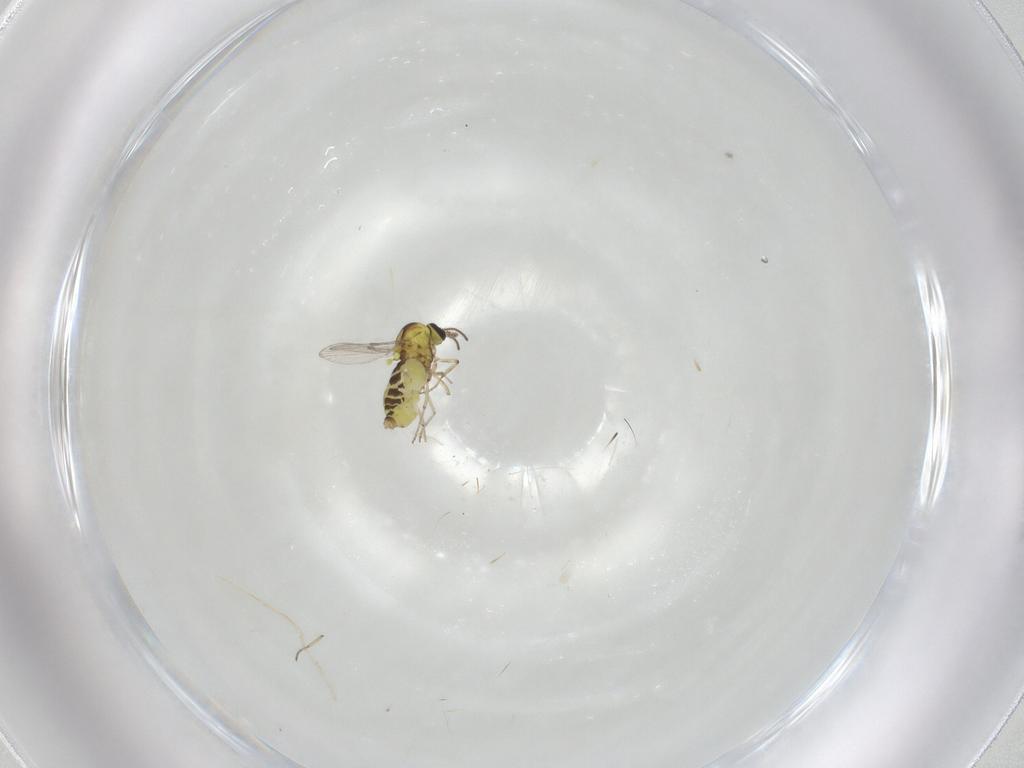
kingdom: Animalia
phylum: Arthropoda
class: Insecta
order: Diptera
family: Ceratopogonidae
